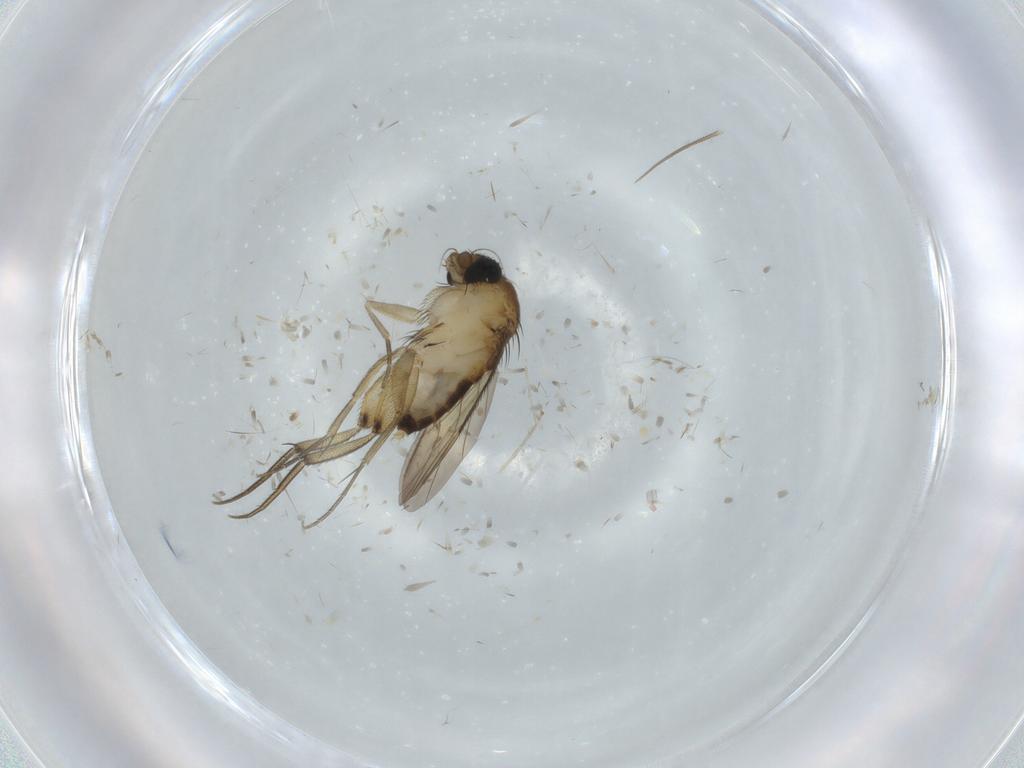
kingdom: Animalia
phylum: Arthropoda
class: Insecta
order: Diptera
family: Phoridae
